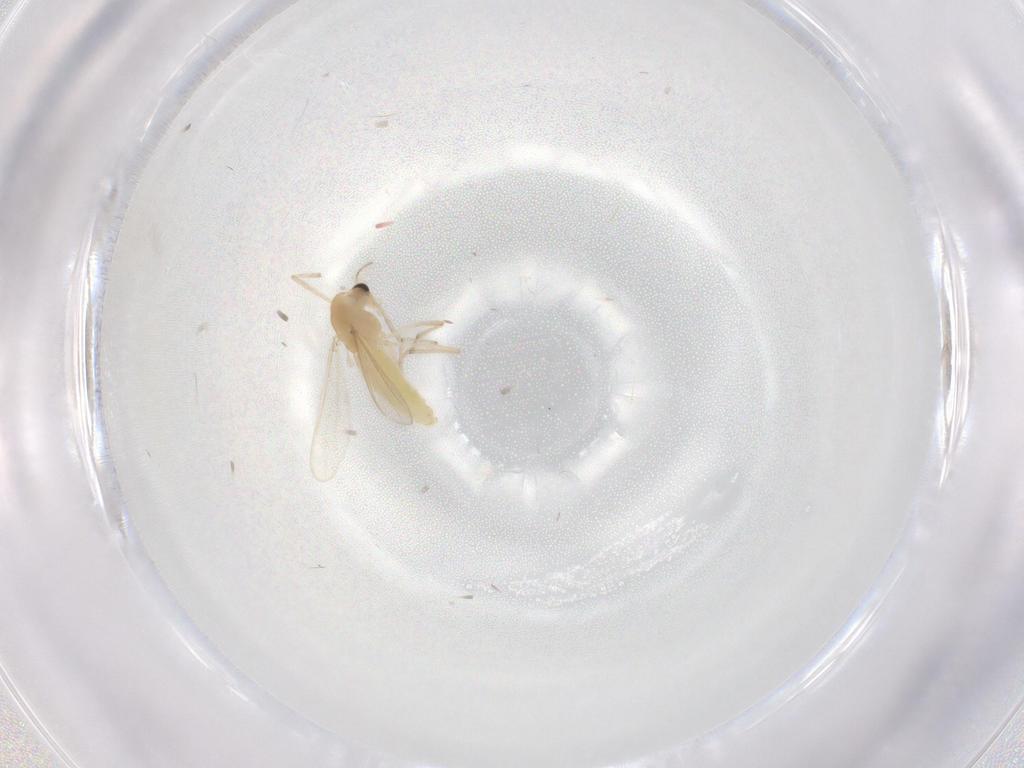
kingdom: Animalia
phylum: Arthropoda
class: Insecta
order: Diptera
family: Chironomidae
